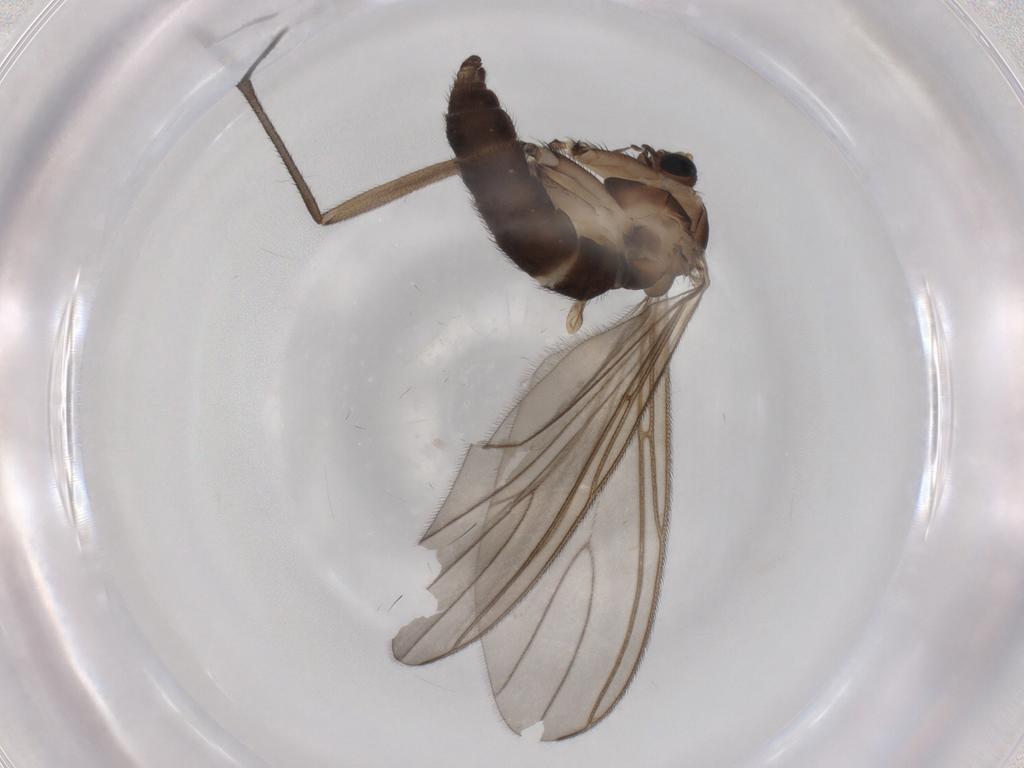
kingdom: Animalia
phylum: Arthropoda
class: Insecta
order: Diptera
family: Sciaridae
